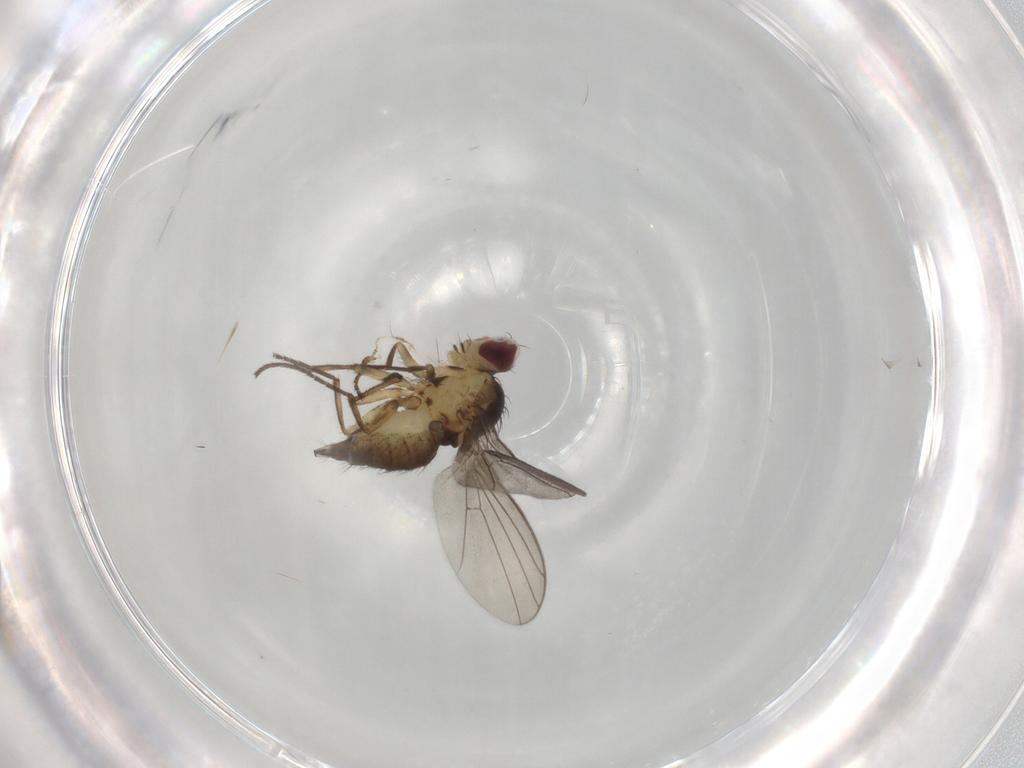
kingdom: Animalia
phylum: Arthropoda
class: Insecta
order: Diptera
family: Agromyzidae
